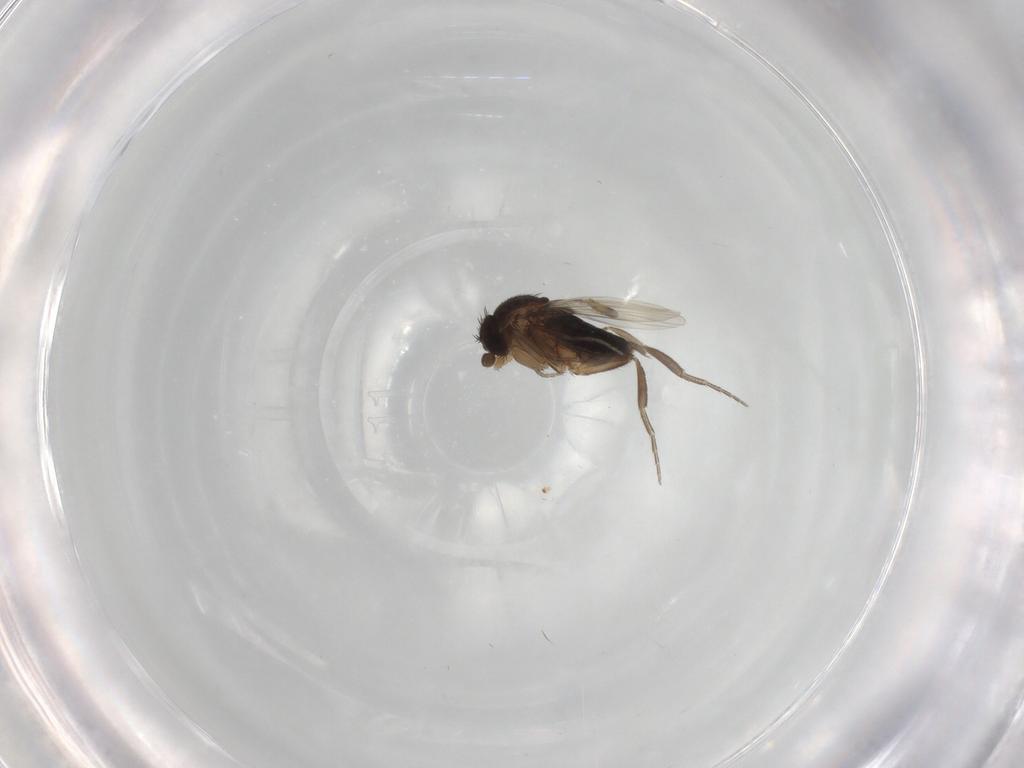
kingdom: Animalia
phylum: Arthropoda
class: Insecta
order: Diptera
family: Phoridae
